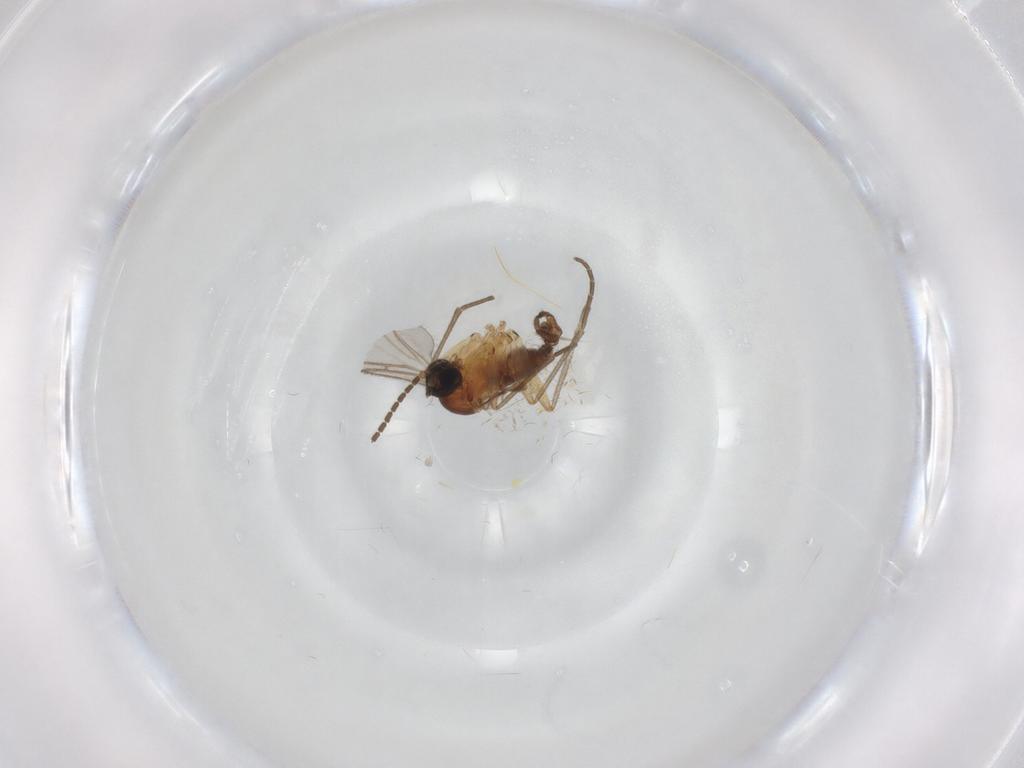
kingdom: Animalia
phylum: Arthropoda
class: Insecta
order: Diptera
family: Sciaridae
